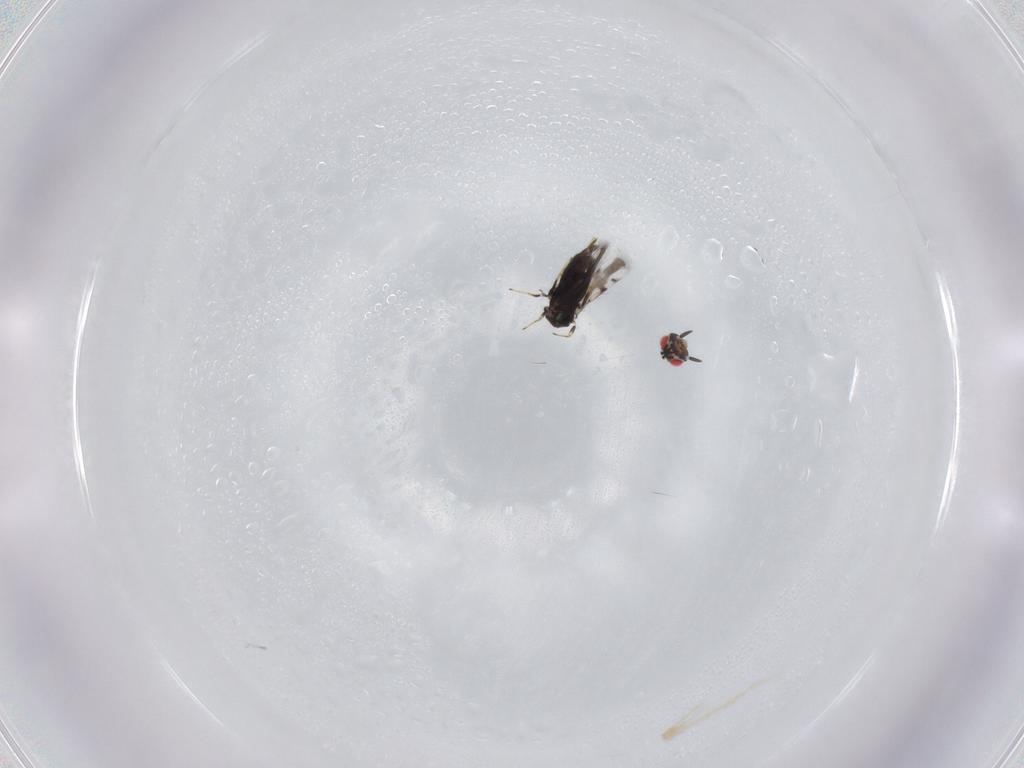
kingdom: Animalia
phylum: Arthropoda
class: Insecta
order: Hymenoptera
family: Azotidae
